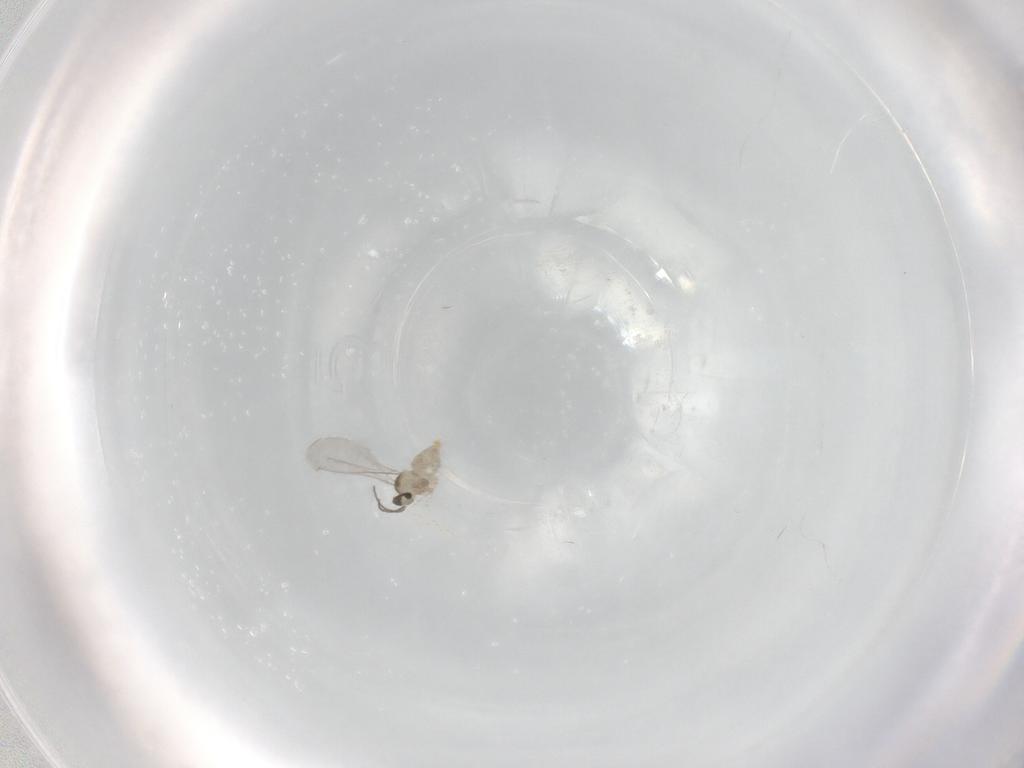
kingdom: Animalia
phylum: Arthropoda
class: Insecta
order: Diptera
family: Cecidomyiidae
